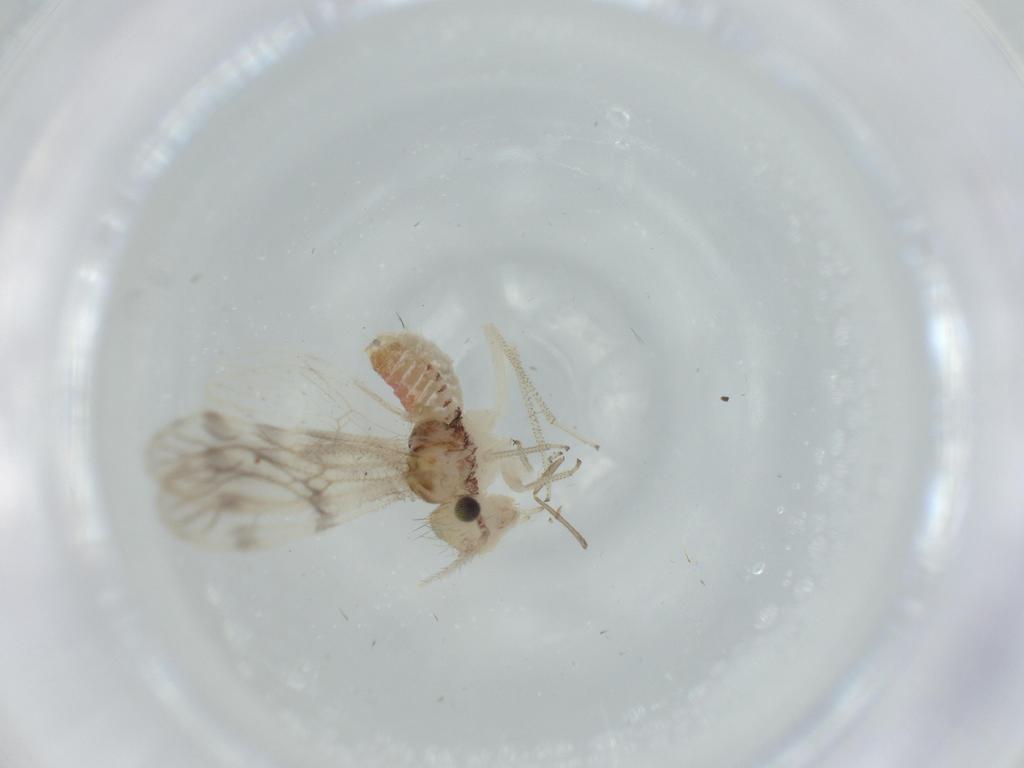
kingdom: Animalia
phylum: Arthropoda
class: Insecta
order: Psocodea
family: Pseudocaeciliidae
